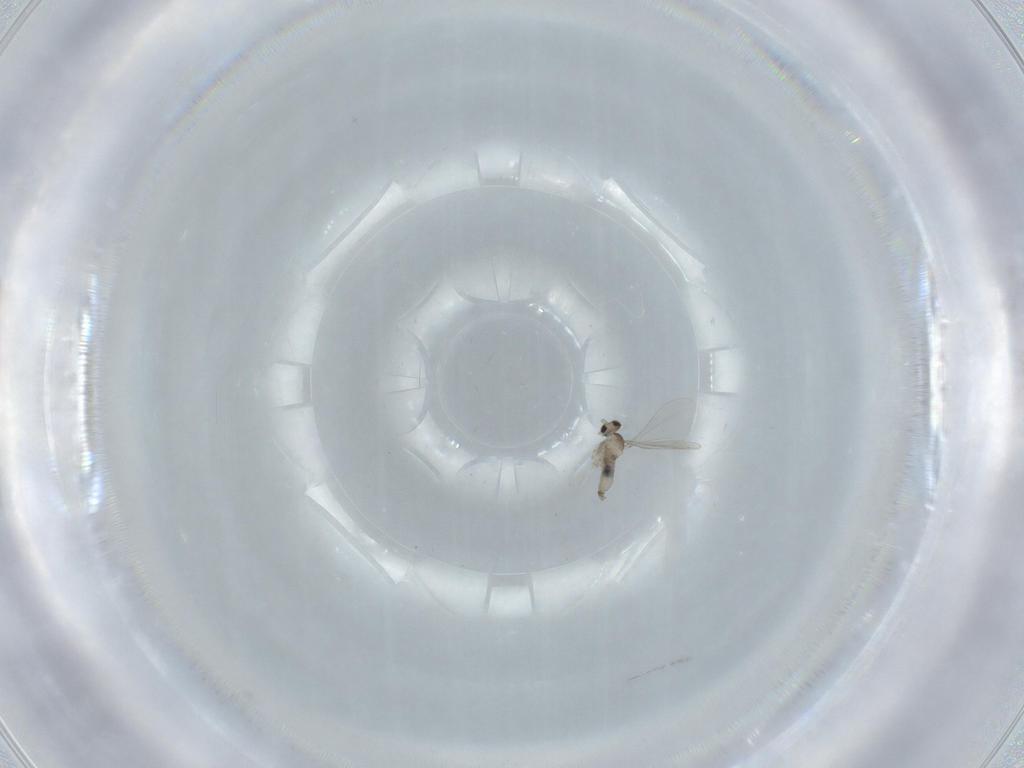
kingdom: Animalia
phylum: Arthropoda
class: Insecta
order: Diptera
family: Cecidomyiidae
